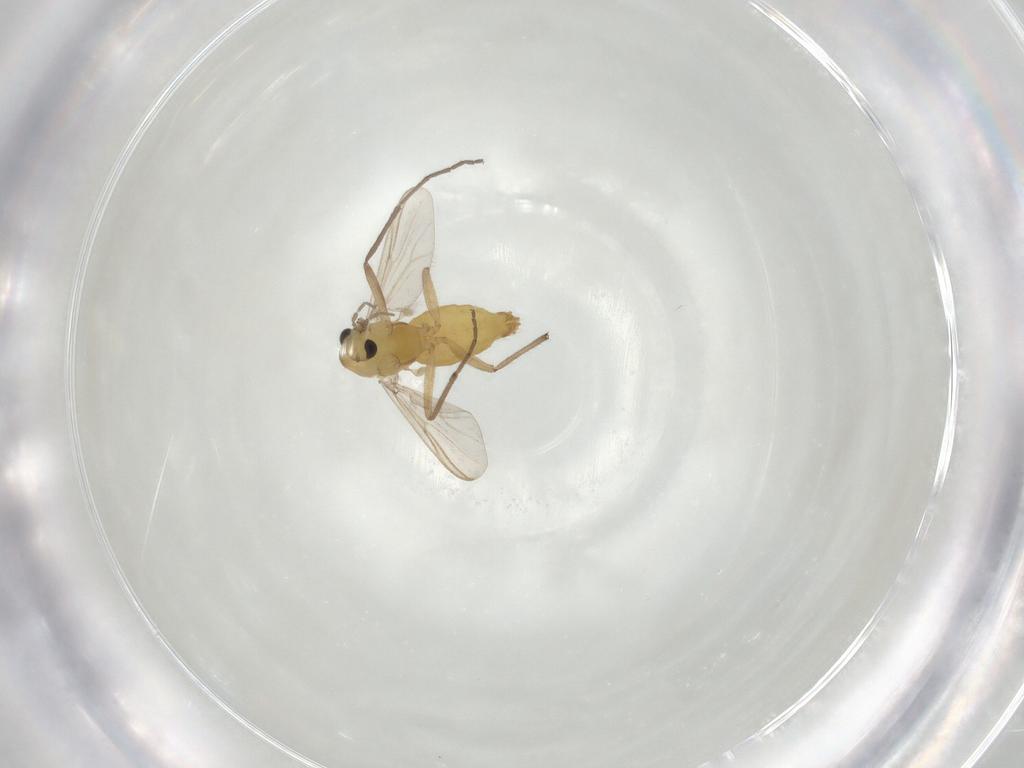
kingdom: Animalia
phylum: Arthropoda
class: Insecta
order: Diptera
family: Chironomidae
